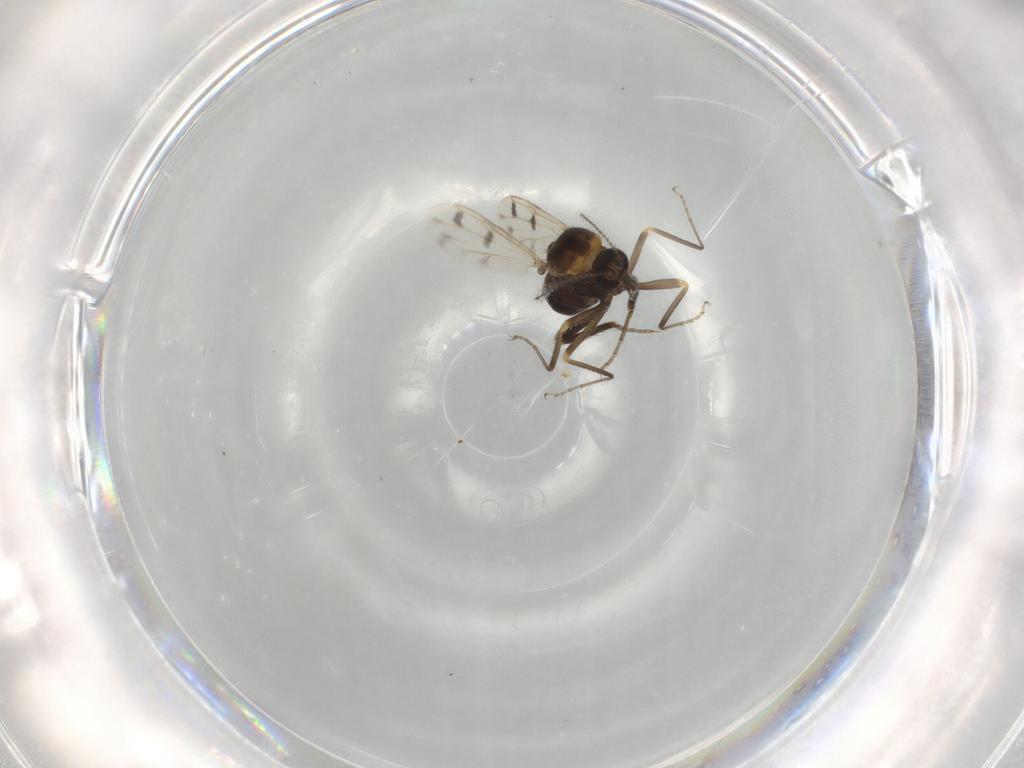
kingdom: Animalia
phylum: Arthropoda
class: Insecta
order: Diptera
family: Ceratopogonidae
